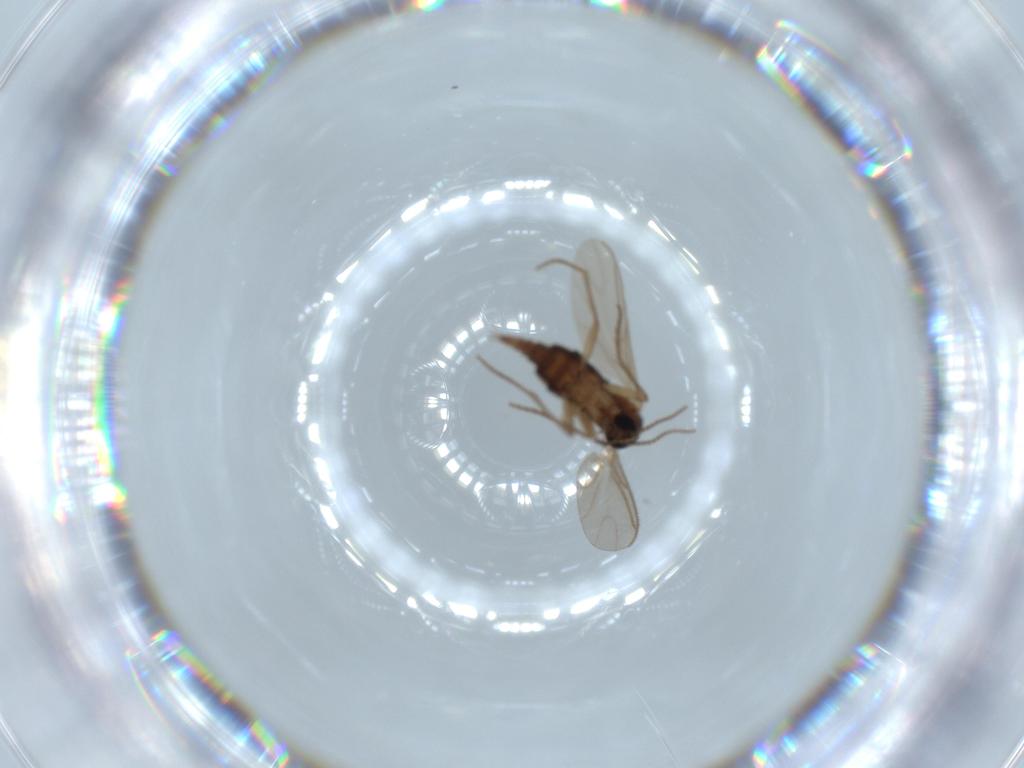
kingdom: Animalia
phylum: Arthropoda
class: Insecta
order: Diptera
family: Sciaridae
